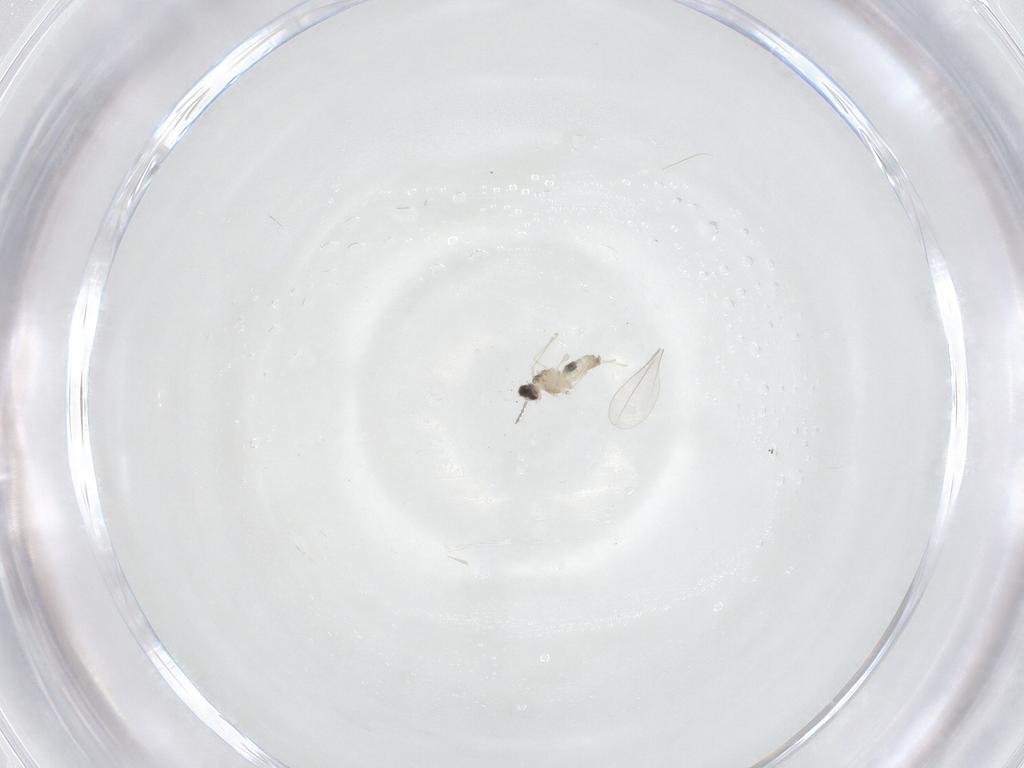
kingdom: Animalia
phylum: Arthropoda
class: Insecta
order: Diptera
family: Cecidomyiidae
